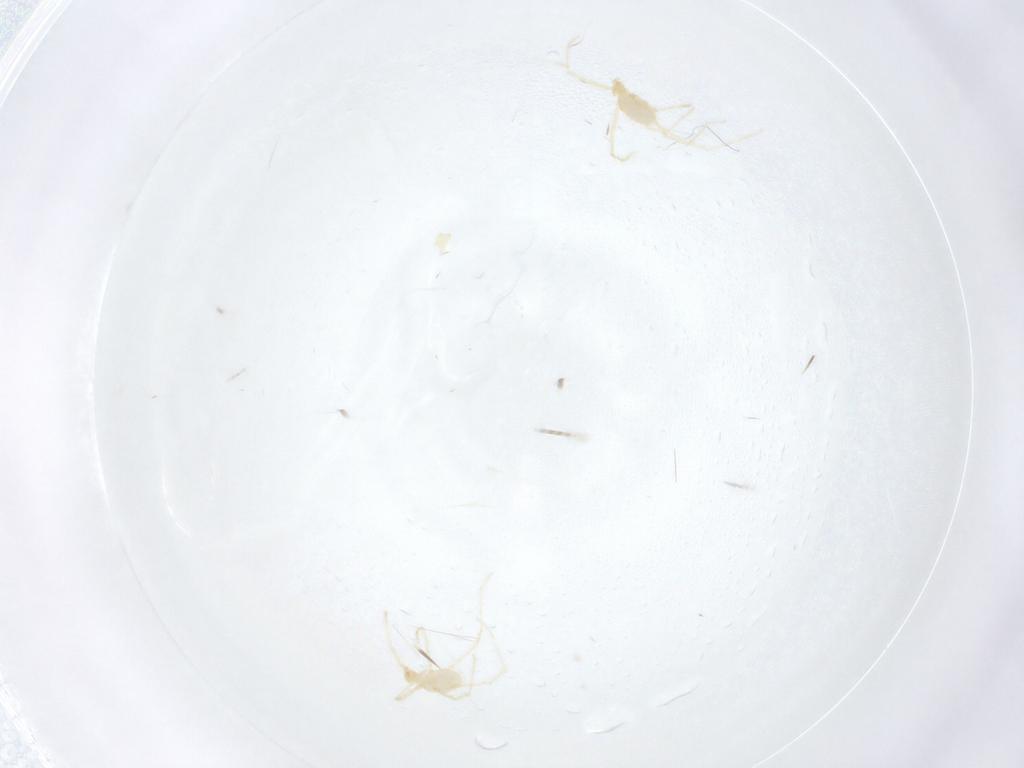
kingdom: Animalia
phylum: Arthropoda
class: Arachnida
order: Trombidiformes
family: Erythraeidae
